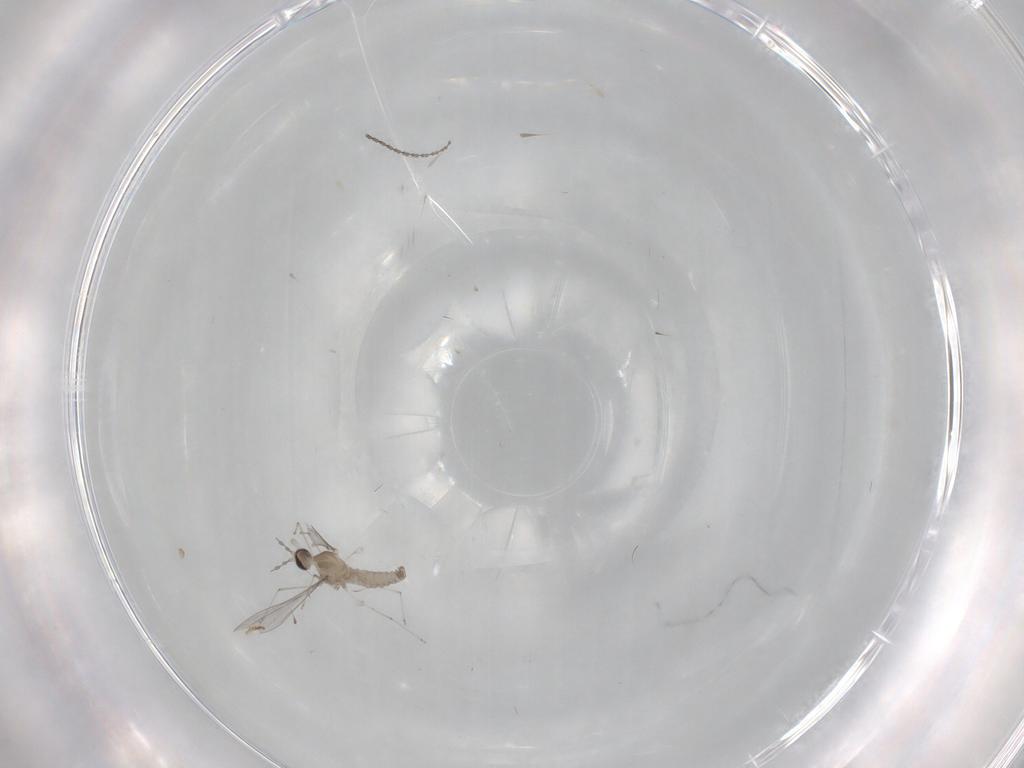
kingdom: Animalia
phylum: Arthropoda
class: Insecta
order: Diptera
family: Cecidomyiidae
